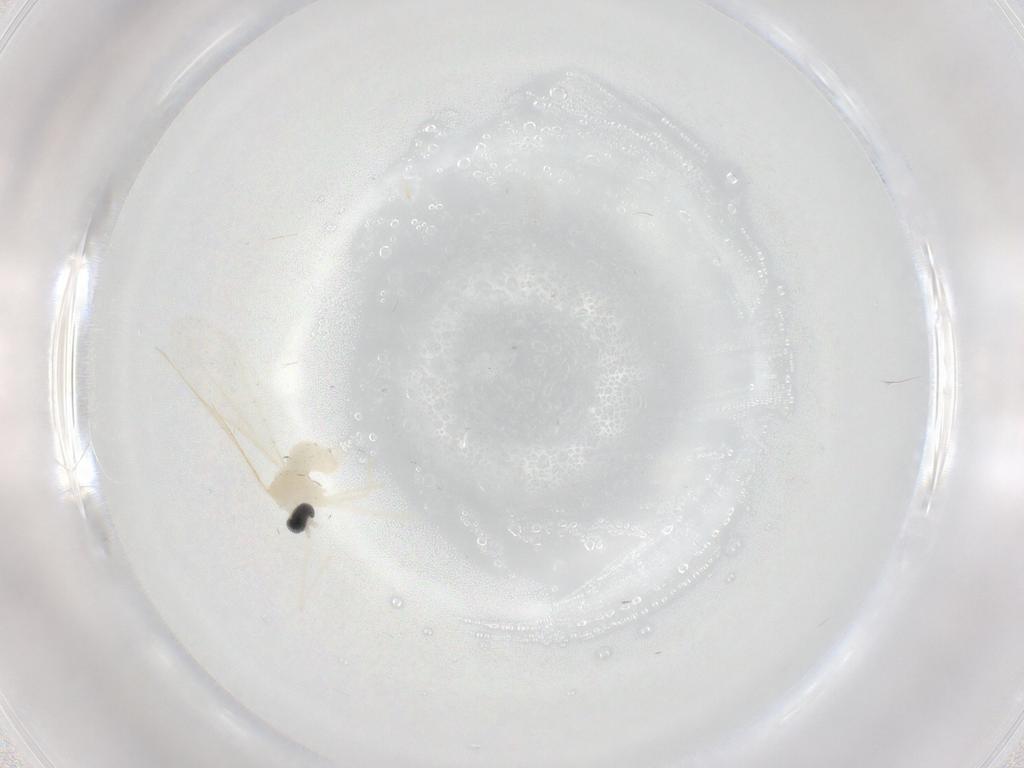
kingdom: Animalia
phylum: Arthropoda
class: Insecta
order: Diptera
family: Cecidomyiidae
